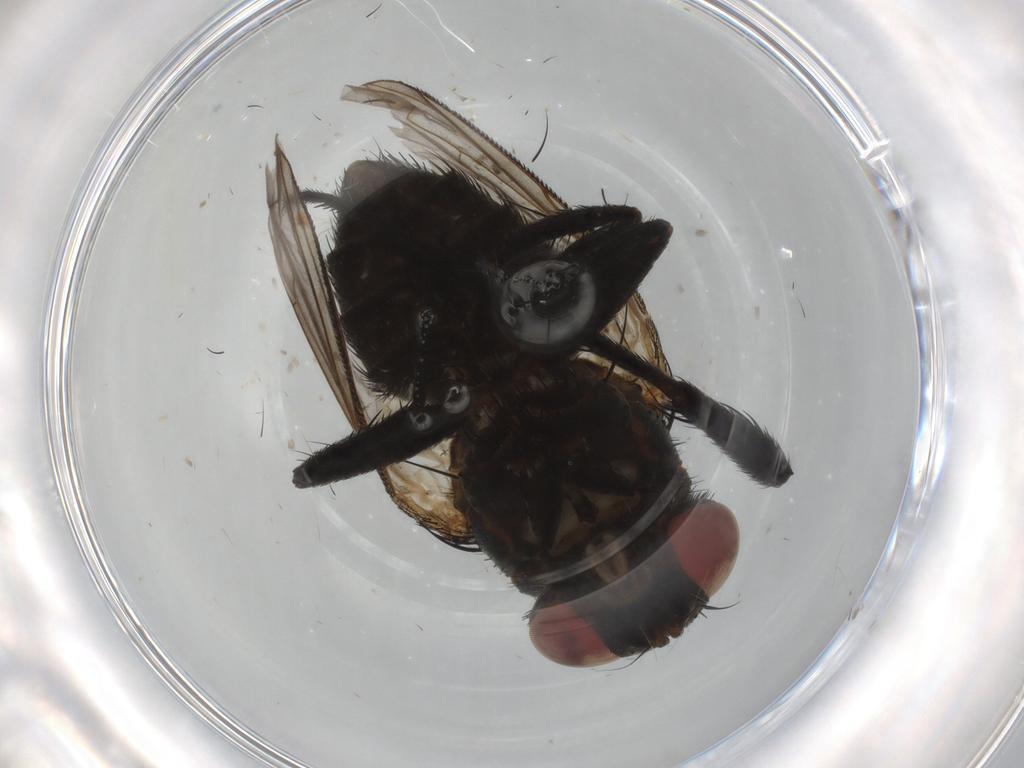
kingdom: Animalia
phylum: Arthropoda
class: Insecta
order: Diptera
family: Tachinidae
